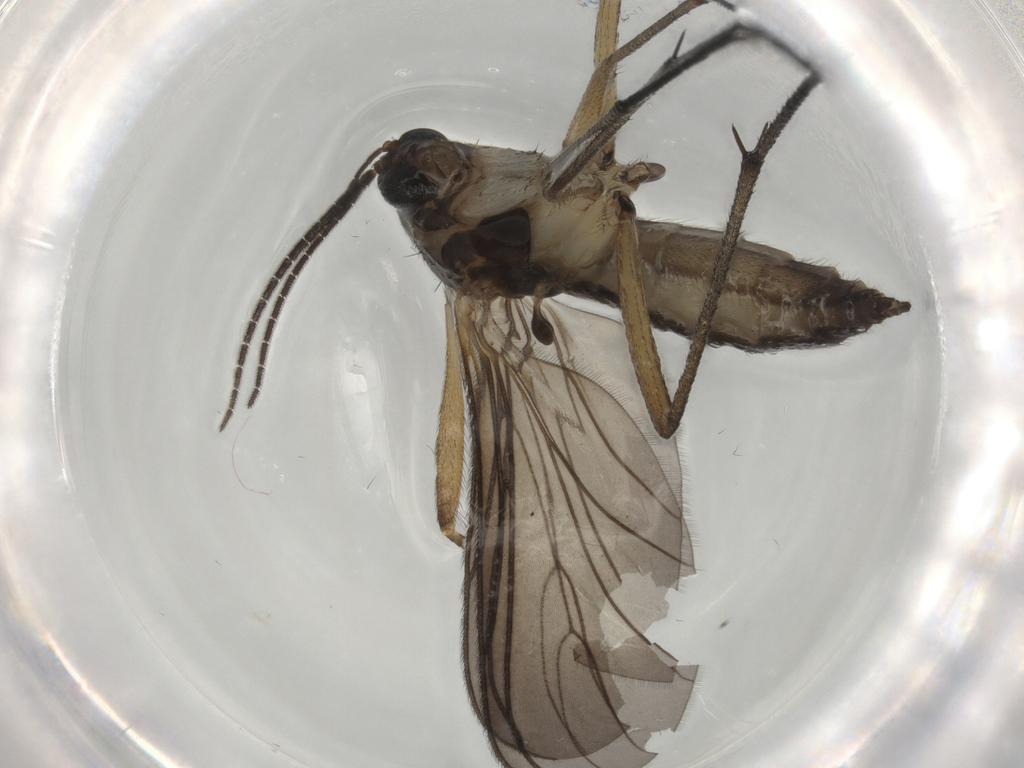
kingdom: Animalia
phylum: Arthropoda
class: Insecta
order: Diptera
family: Sciaridae
